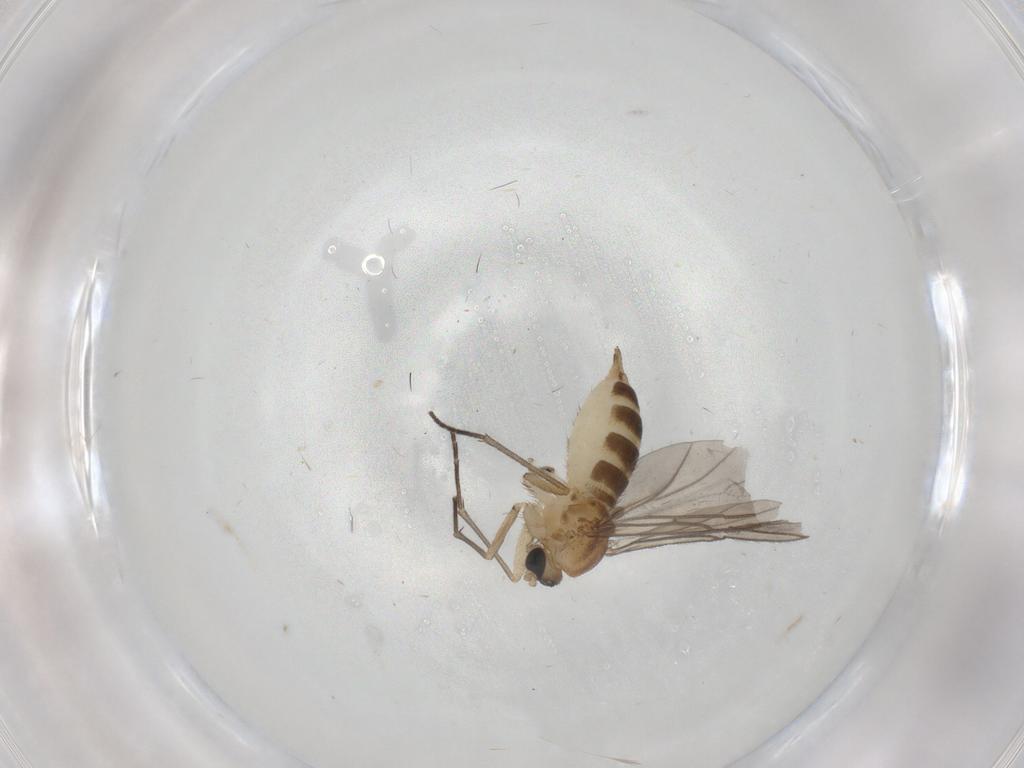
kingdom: Animalia
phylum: Arthropoda
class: Insecta
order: Diptera
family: Sciaridae
